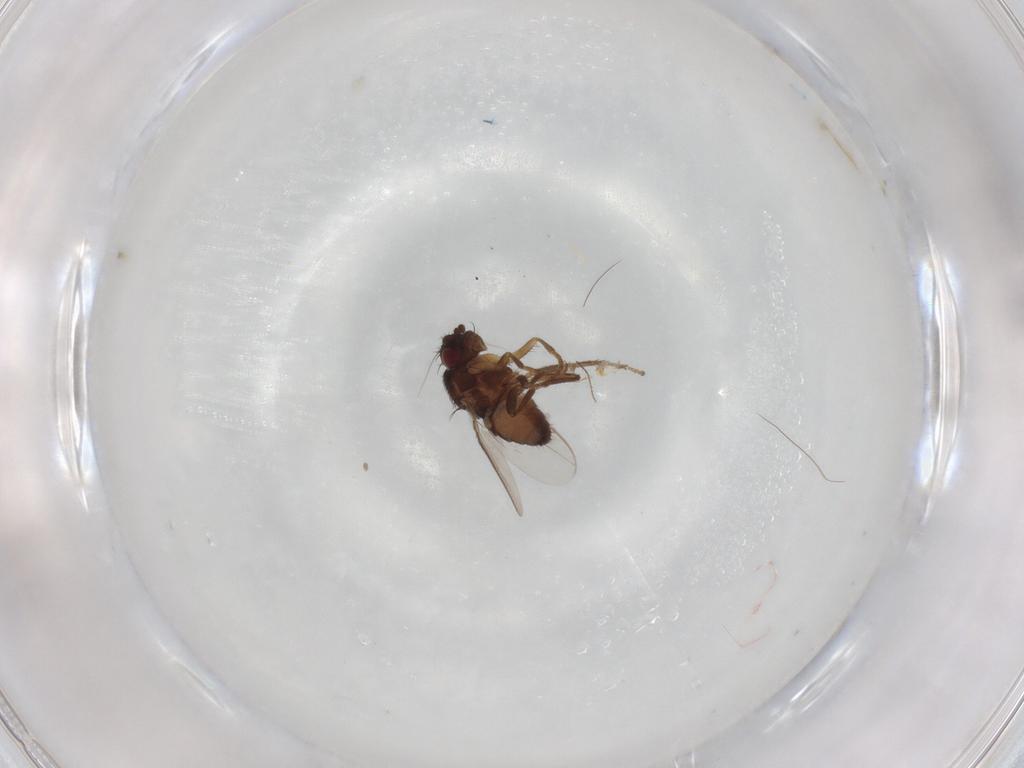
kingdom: Animalia
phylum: Arthropoda
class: Insecta
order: Diptera
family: Sphaeroceridae
